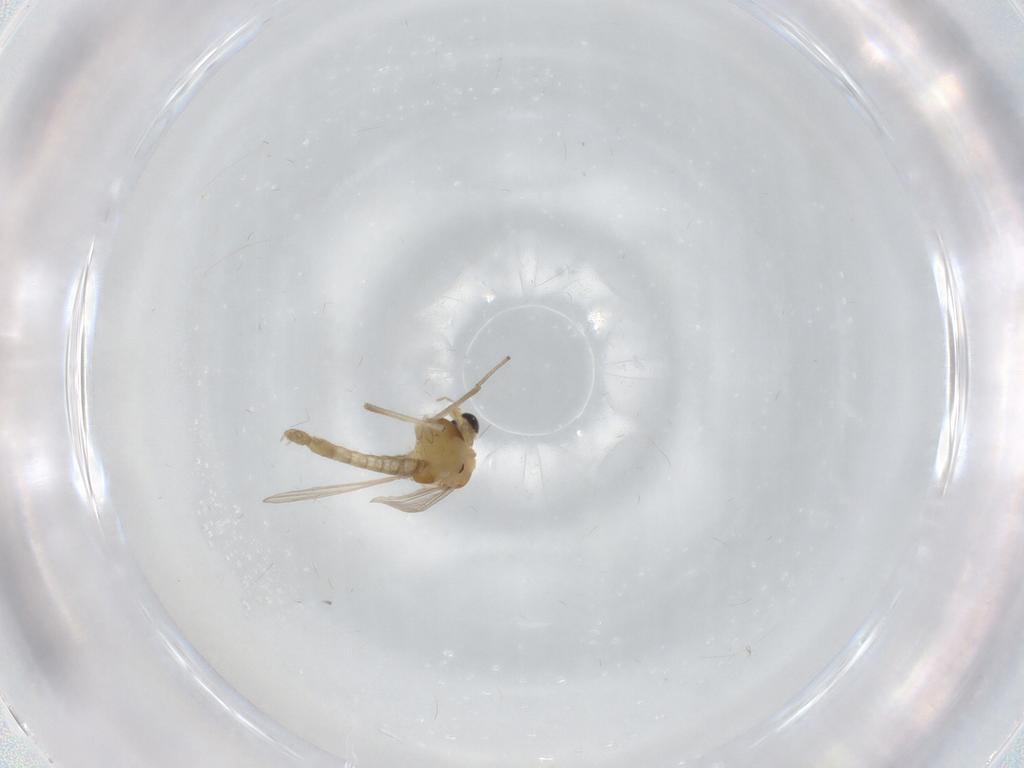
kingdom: Animalia
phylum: Arthropoda
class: Insecta
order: Diptera
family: Chironomidae
